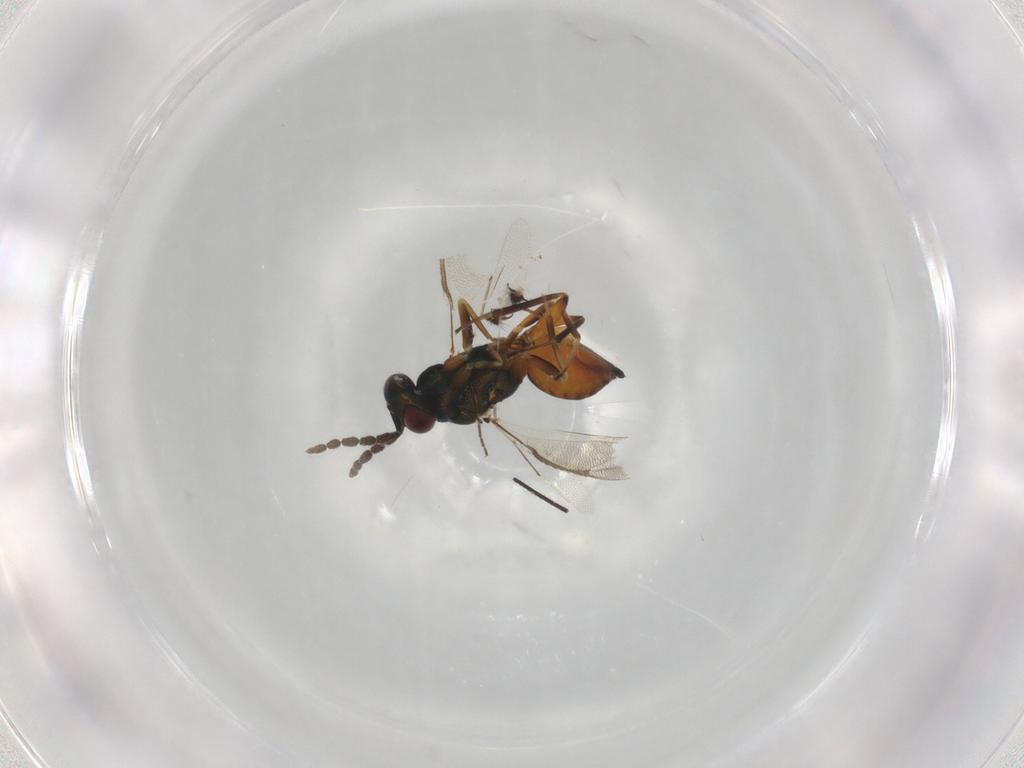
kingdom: Animalia
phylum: Arthropoda
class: Insecta
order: Hymenoptera
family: Eulophidae
